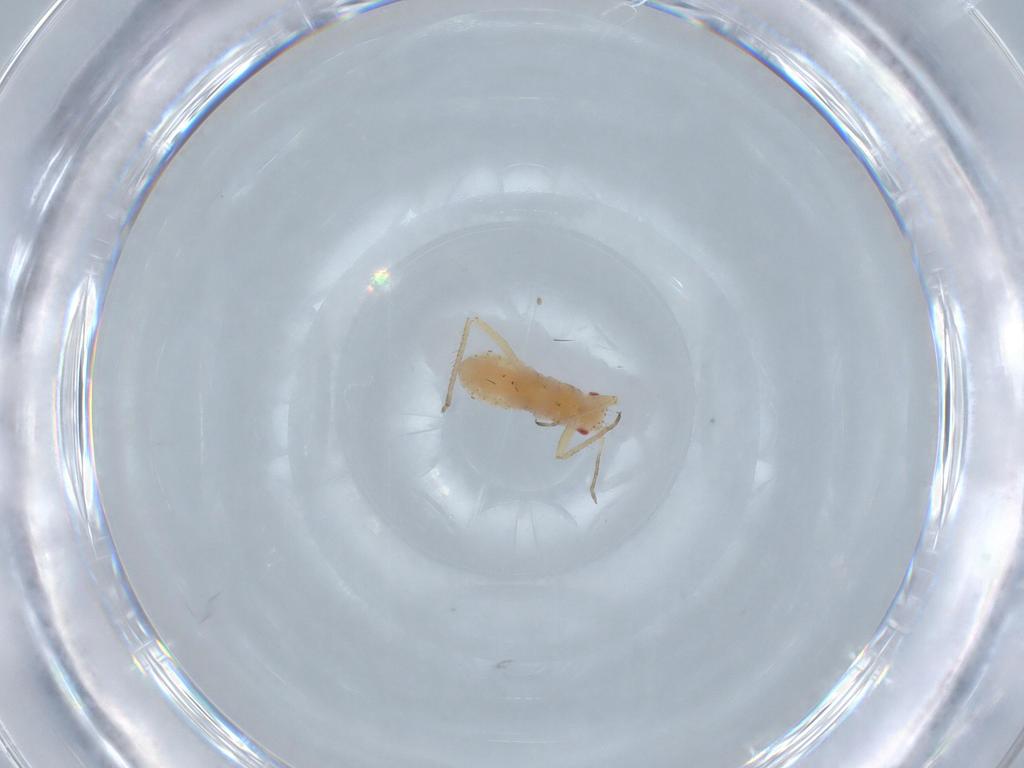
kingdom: Animalia
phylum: Arthropoda
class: Insecta
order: Hemiptera
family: Aphididae
